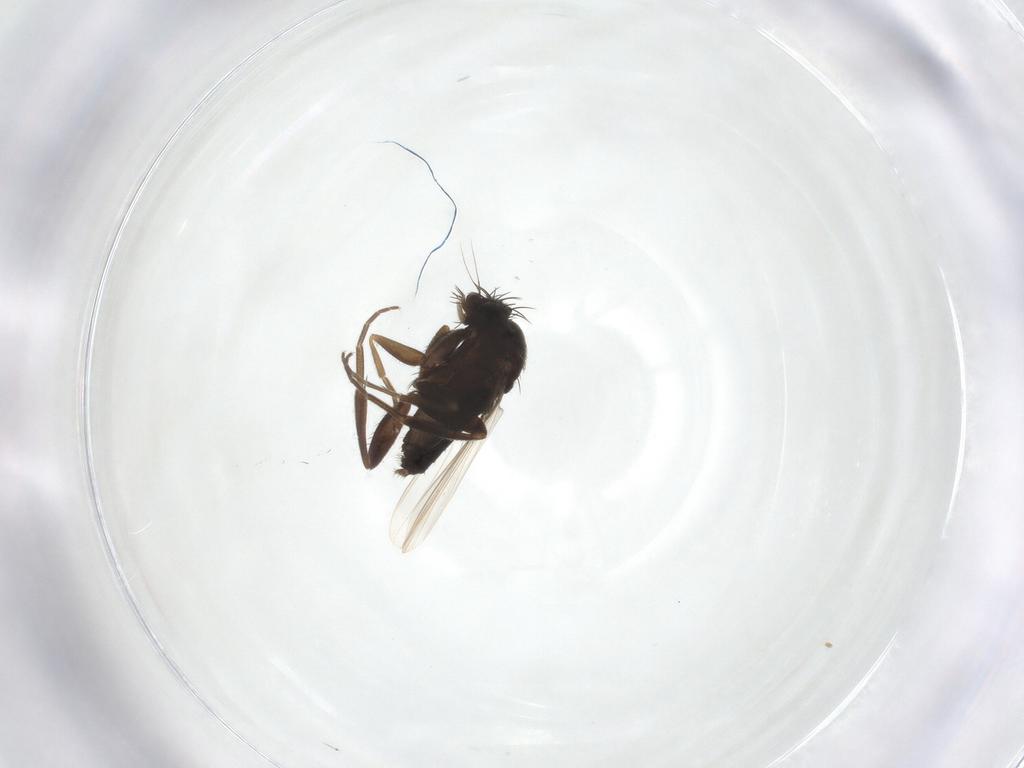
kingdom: Animalia
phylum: Arthropoda
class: Insecta
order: Diptera
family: Phoridae
